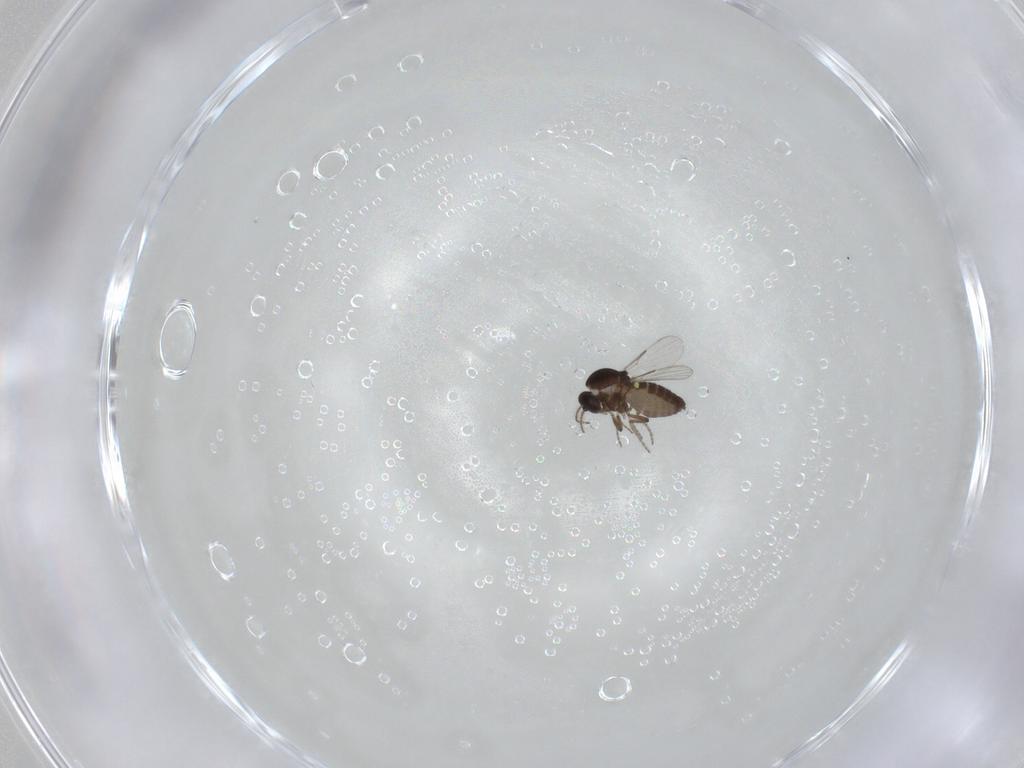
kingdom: Animalia
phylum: Arthropoda
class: Insecta
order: Diptera
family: Ceratopogonidae
